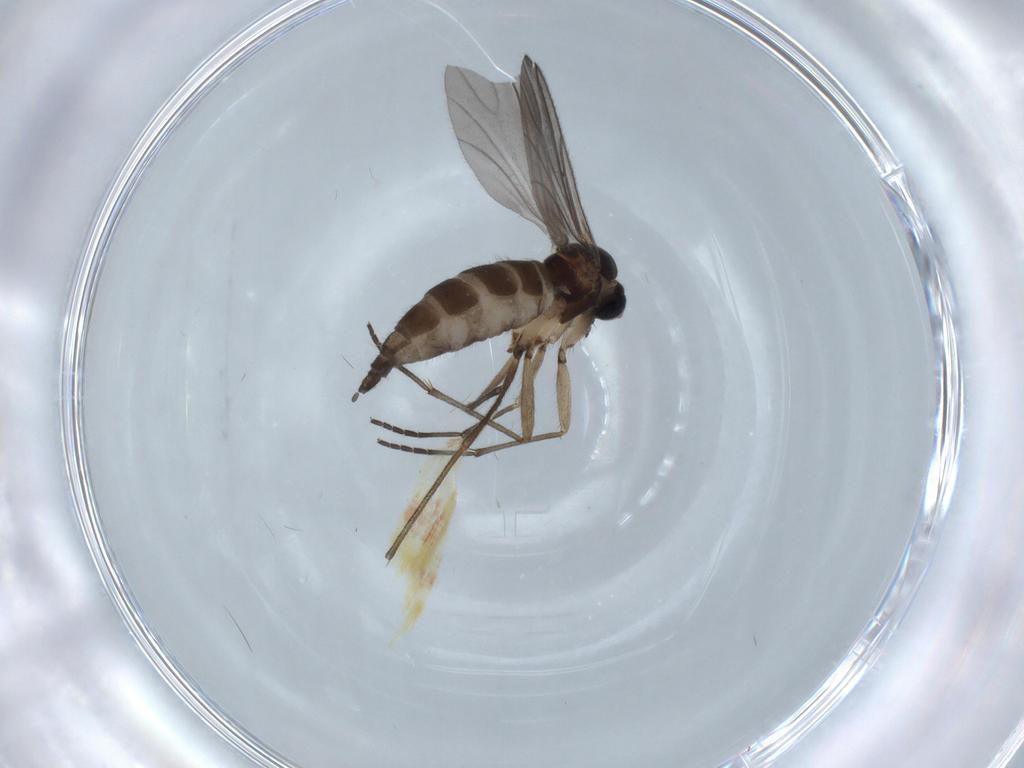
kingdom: Animalia
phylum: Arthropoda
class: Insecta
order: Diptera
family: Sciaridae
